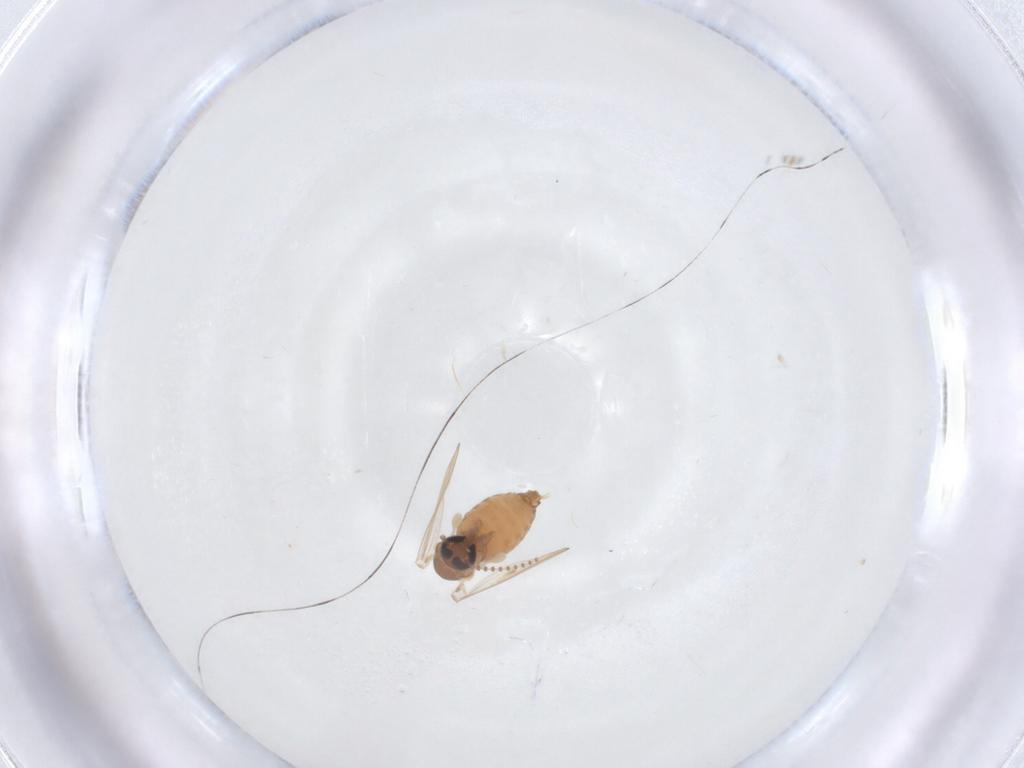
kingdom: Animalia
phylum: Arthropoda
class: Insecta
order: Diptera
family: Psychodidae
